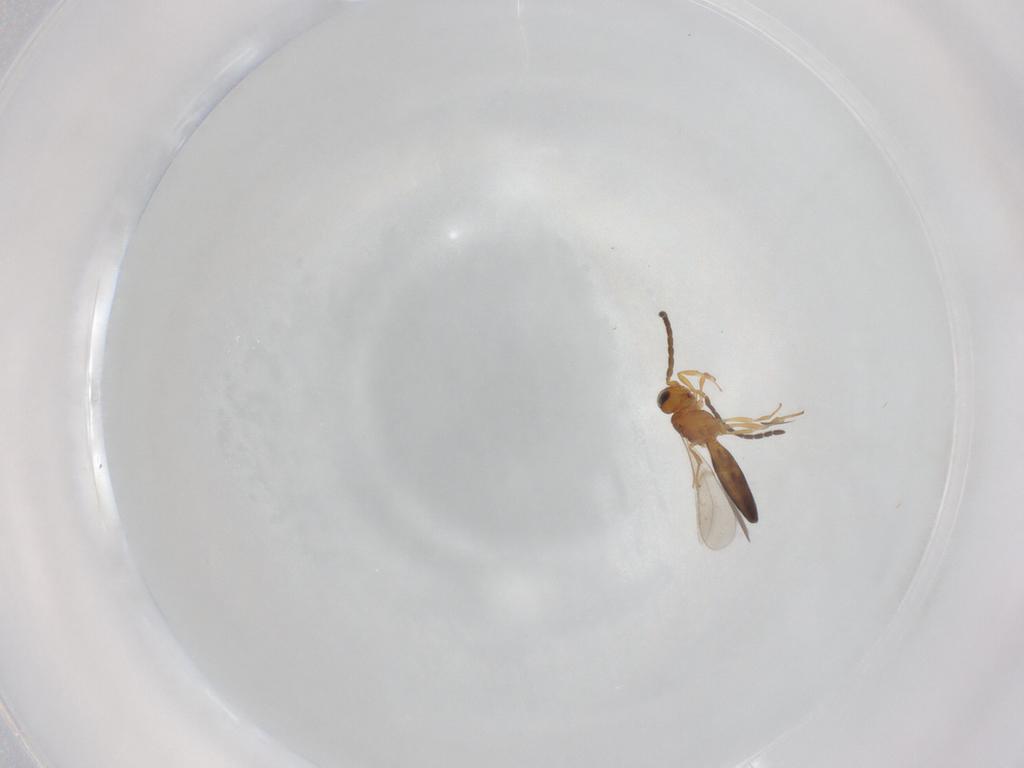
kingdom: Animalia
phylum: Arthropoda
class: Insecta
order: Hymenoptera
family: Scelionidae
